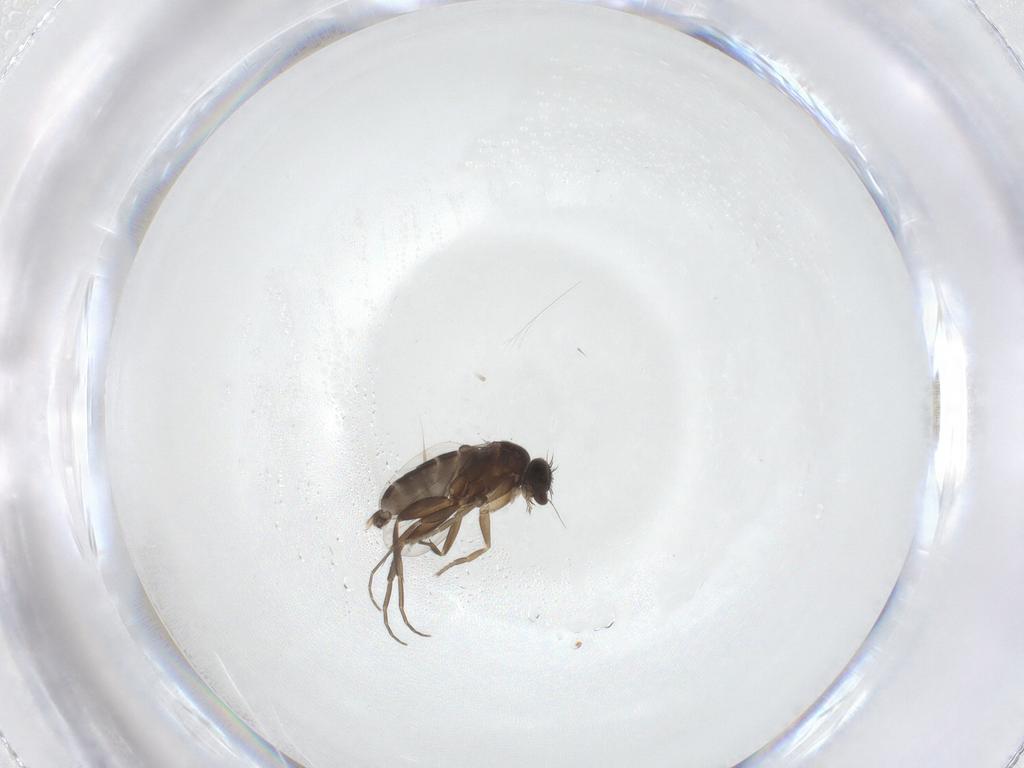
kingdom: Animalia
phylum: Arthropoda
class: Insecta
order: Diptera
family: Phoridae
